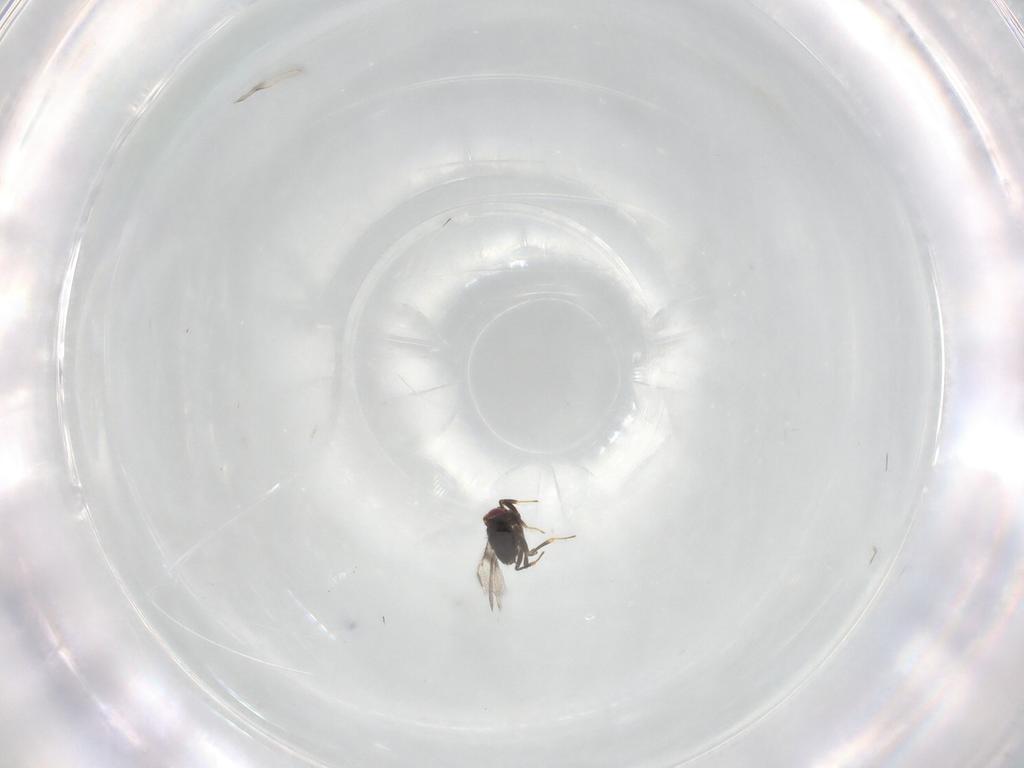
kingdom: Animalia
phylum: Arthropoda
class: Insecta
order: Hymenoptera
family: Azotidae
